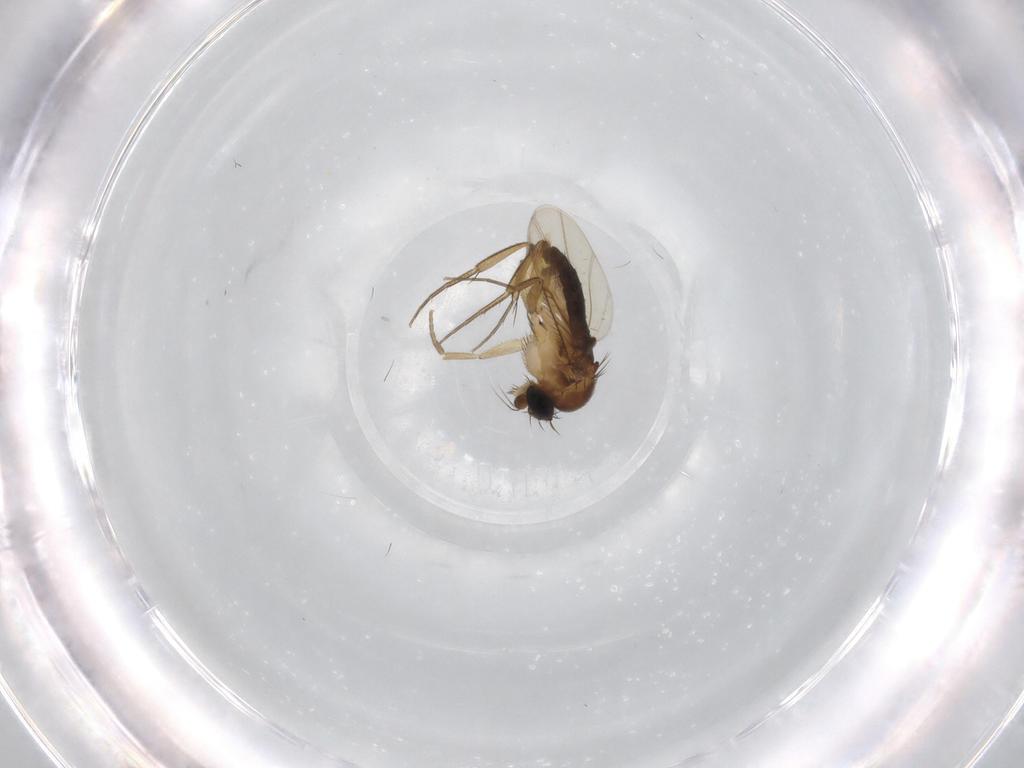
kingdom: Animalia
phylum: Arthropoda
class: Insecta
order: Diptera
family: Phoridae
